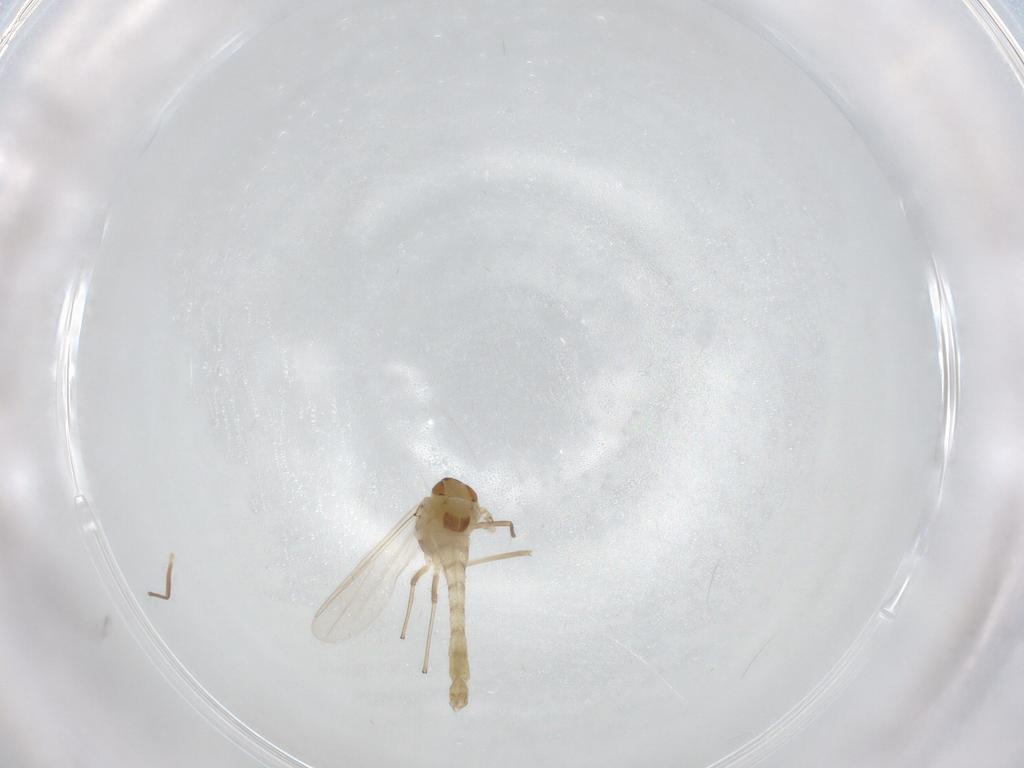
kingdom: Animalia
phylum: Arthropoda
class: Insecta
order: Diptera
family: Chironomidae
